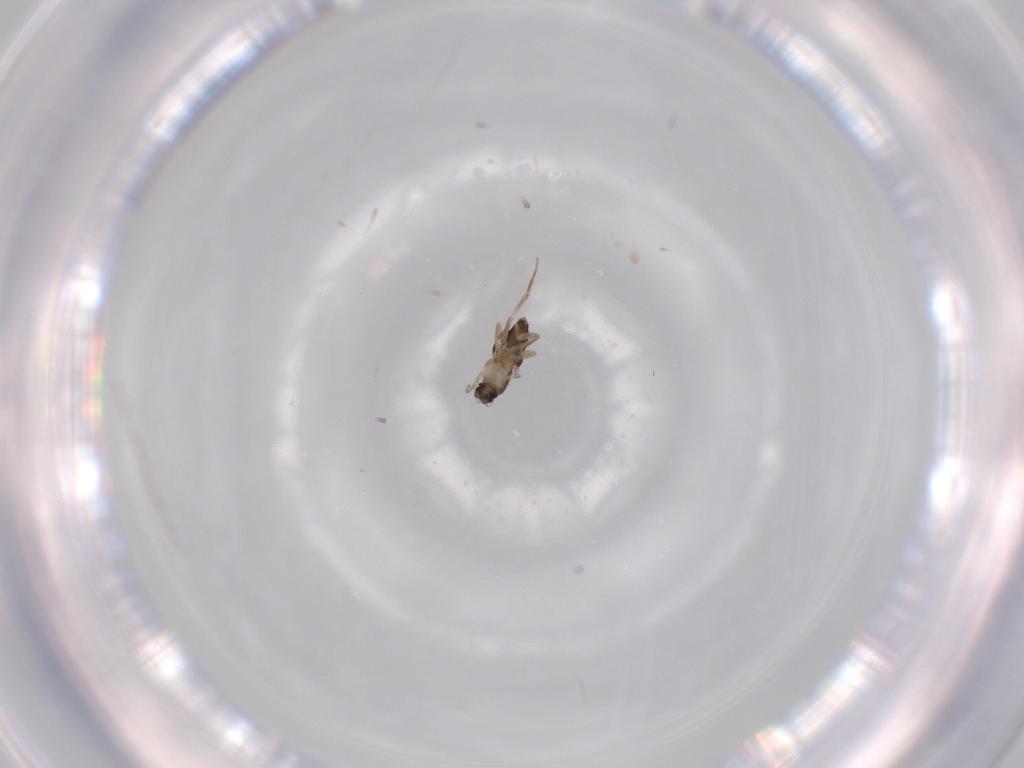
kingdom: Animalia
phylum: Arthropoda
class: Insecta
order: Diptera
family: Phoridae
